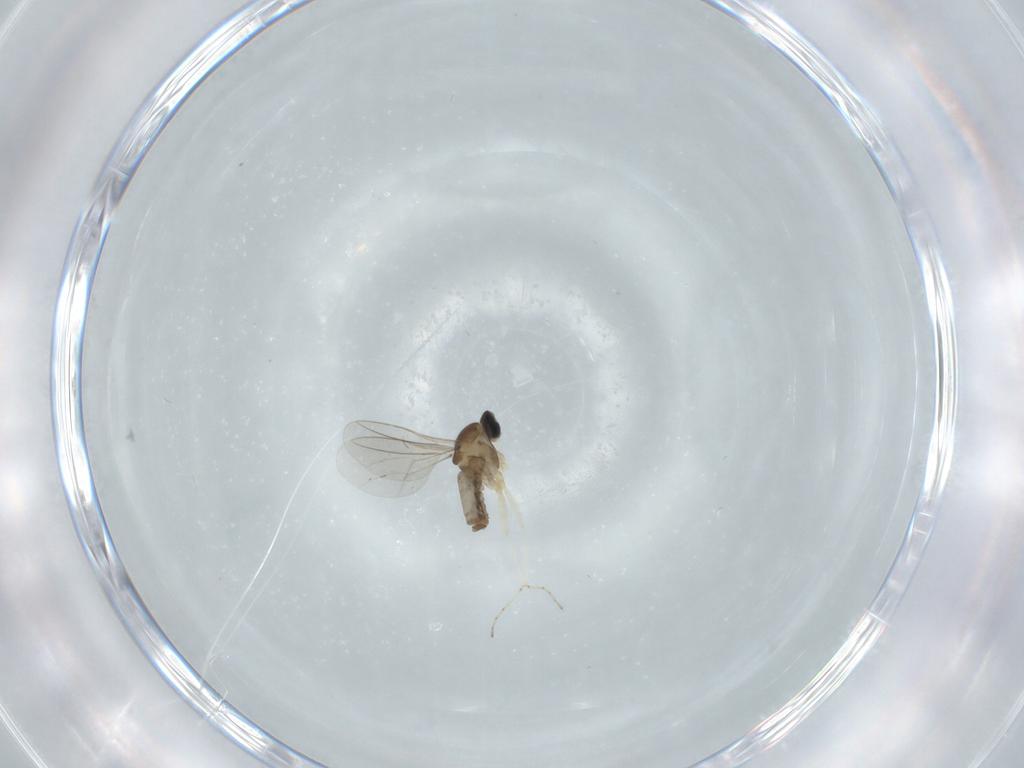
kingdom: Animalia
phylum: Arthropoda
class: Insecta
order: Diptera
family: Cecidomyiidae
